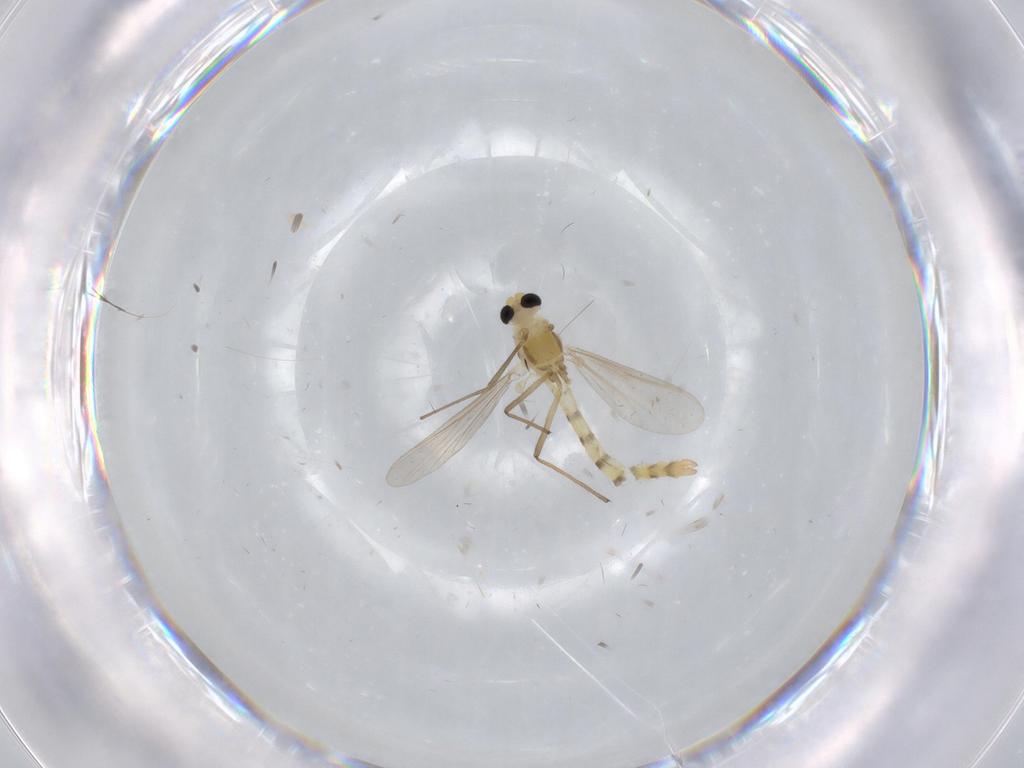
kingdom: Animalia
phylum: Arthropoda
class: Insecta
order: Diptera
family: Chironomidae
